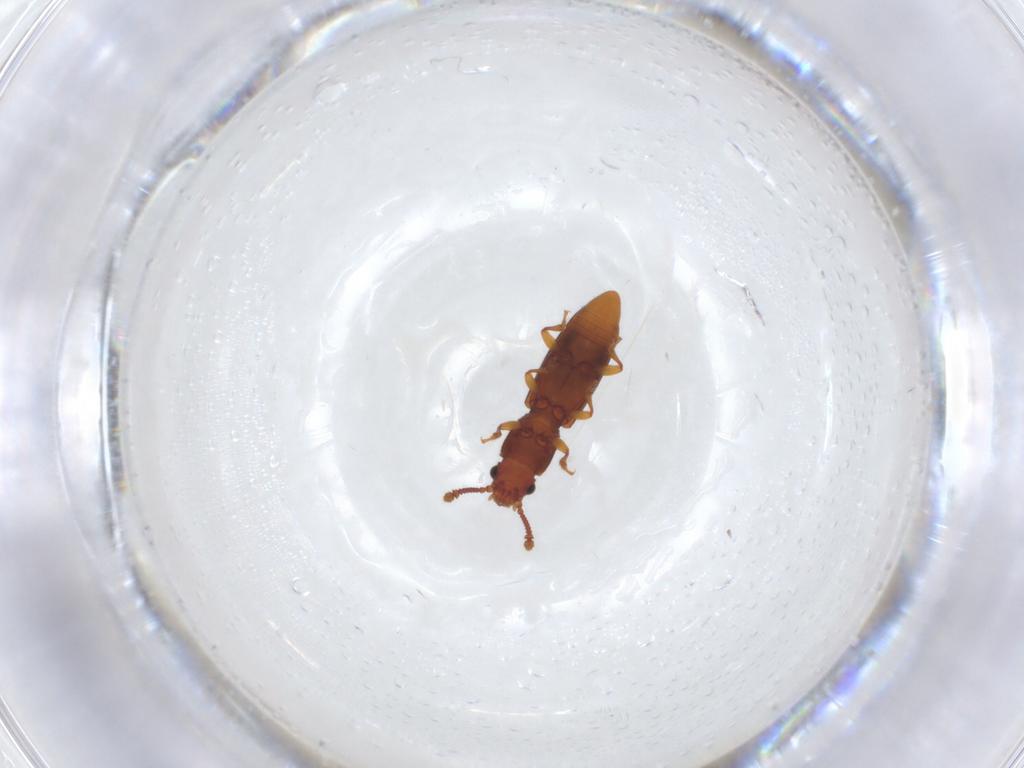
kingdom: Animalia
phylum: Arthropoda
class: Insecta
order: Coleoptera
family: Monotomidae
